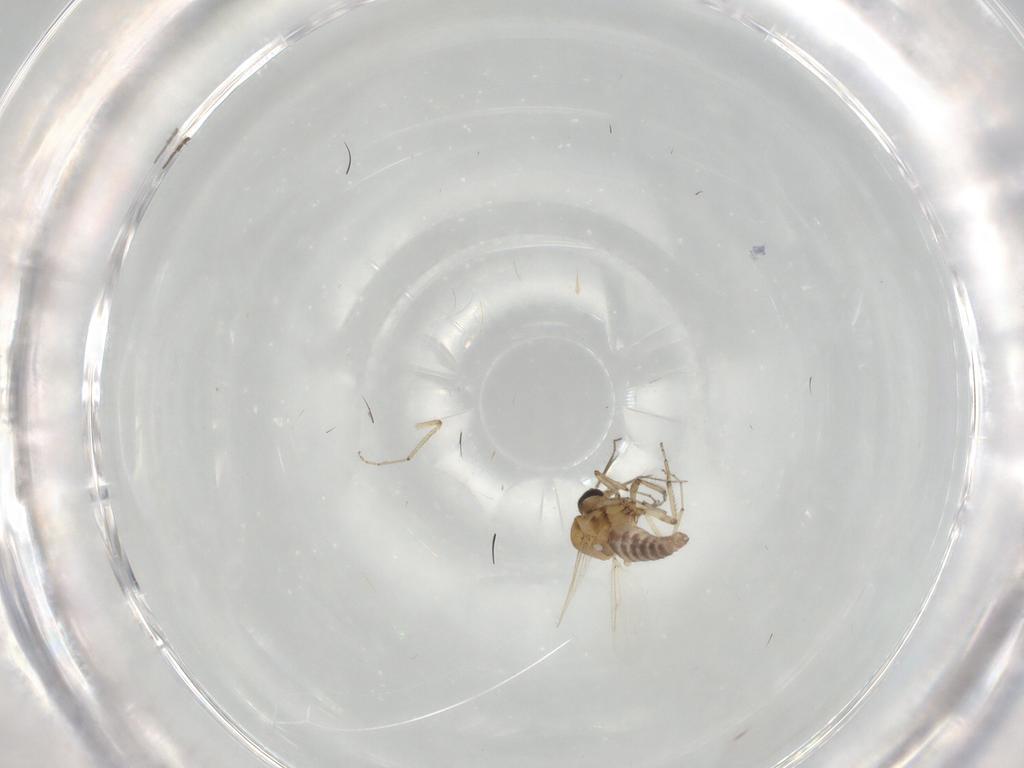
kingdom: Animalia
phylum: Arthropoda
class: Insecta
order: Diptera
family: Ceratopogonidae
